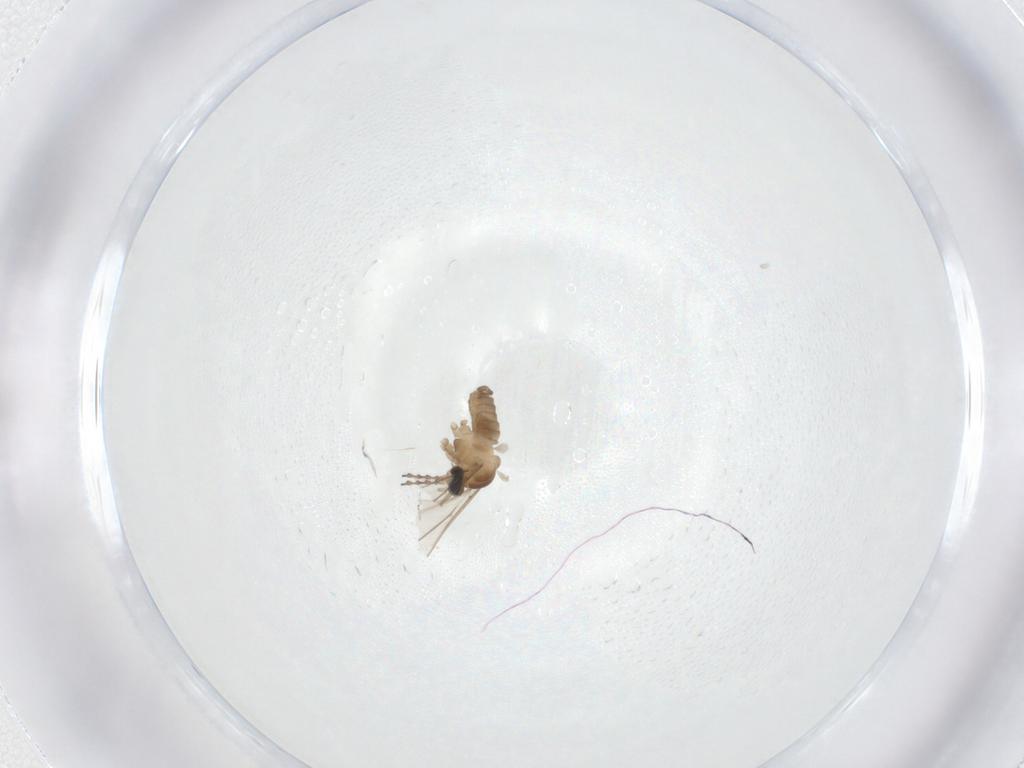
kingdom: Animalia
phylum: Arthropoda
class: Insecta
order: Diptera
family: Cecidomyiidae
